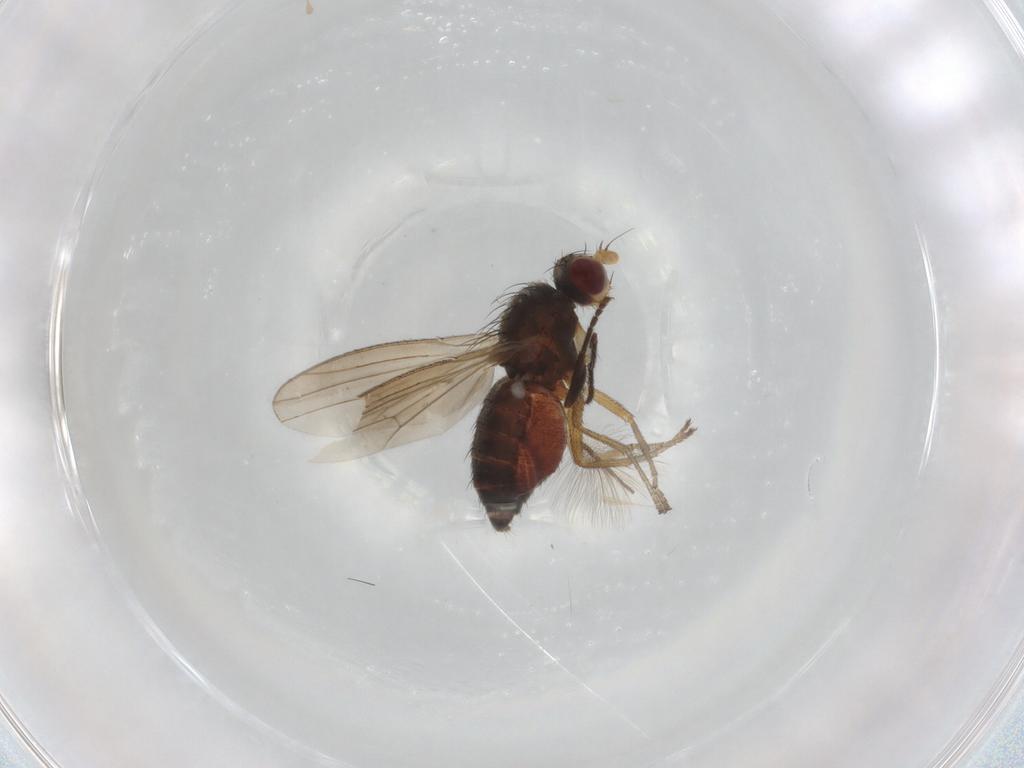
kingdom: Animalia
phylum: Arthropoda
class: Insecta
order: Diptera
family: Heleomyzidae
